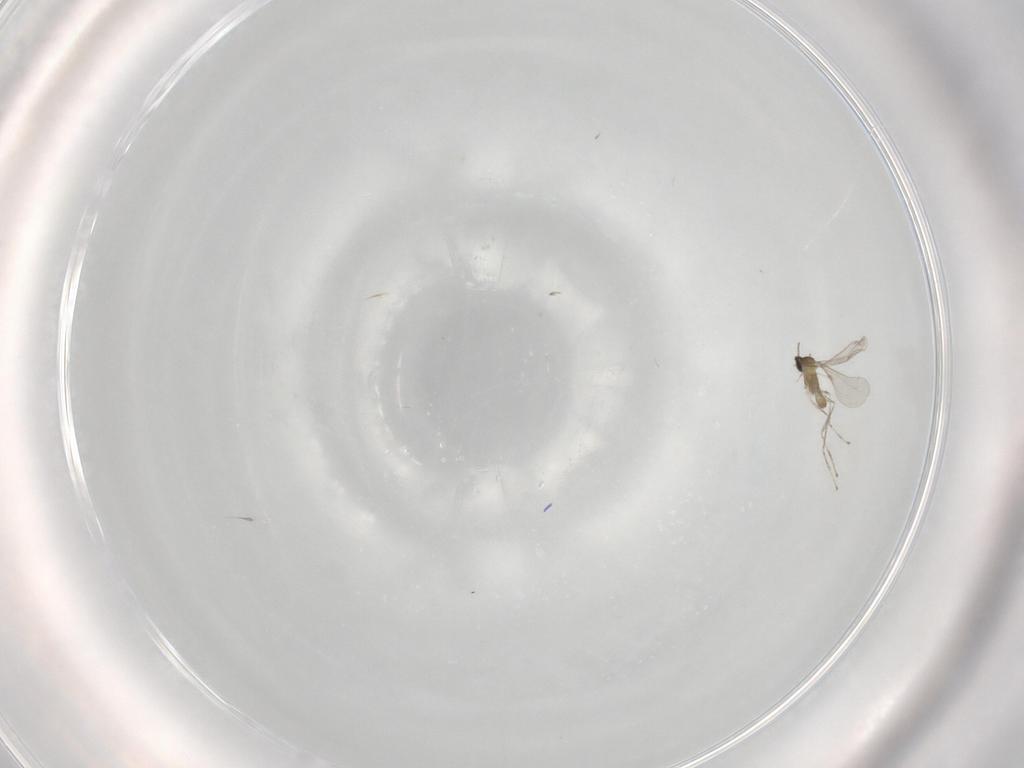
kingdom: Animalia
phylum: Arthropoda
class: Insecta
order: Diptera
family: Cecidomyiidae
